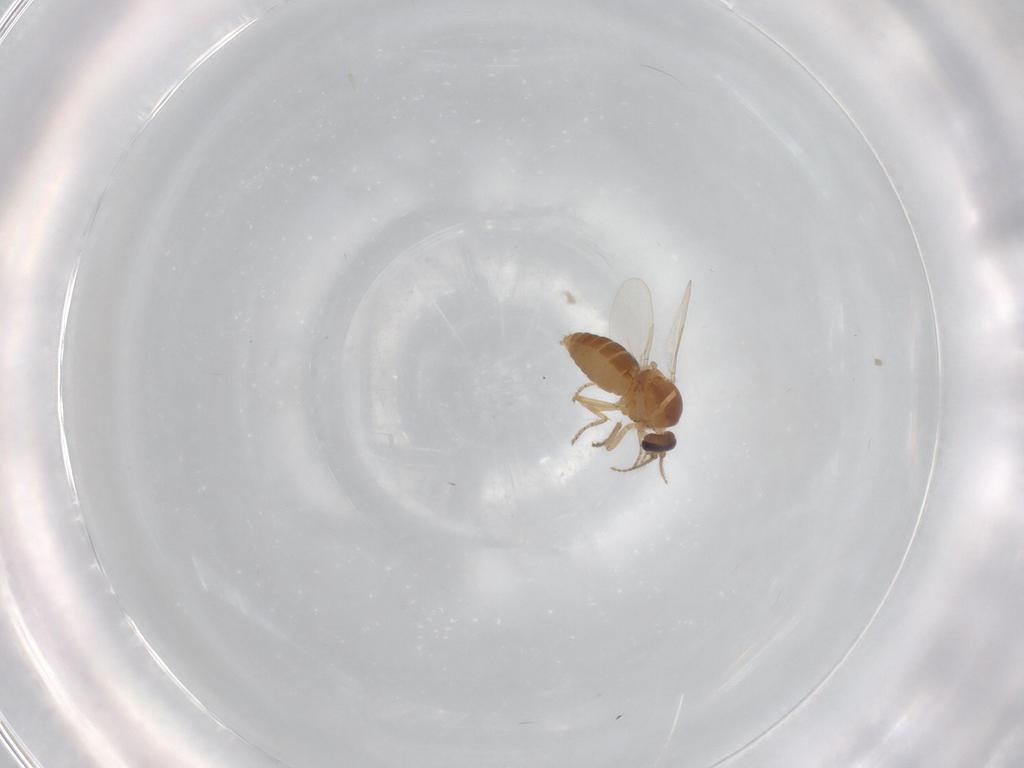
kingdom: Animalia
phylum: Arthropoda
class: Insecta
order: Diptera
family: Ceratopogonidae
